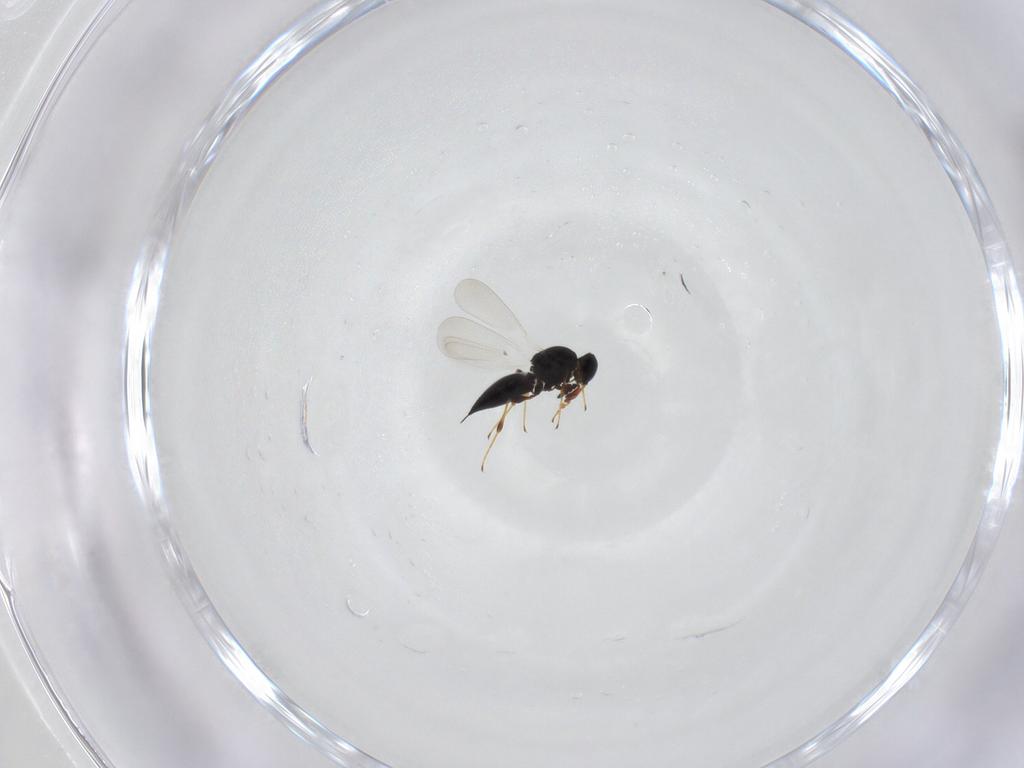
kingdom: Animalia
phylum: Arthropoda
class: Insecta
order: Hymenoptera
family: Platygastridae
